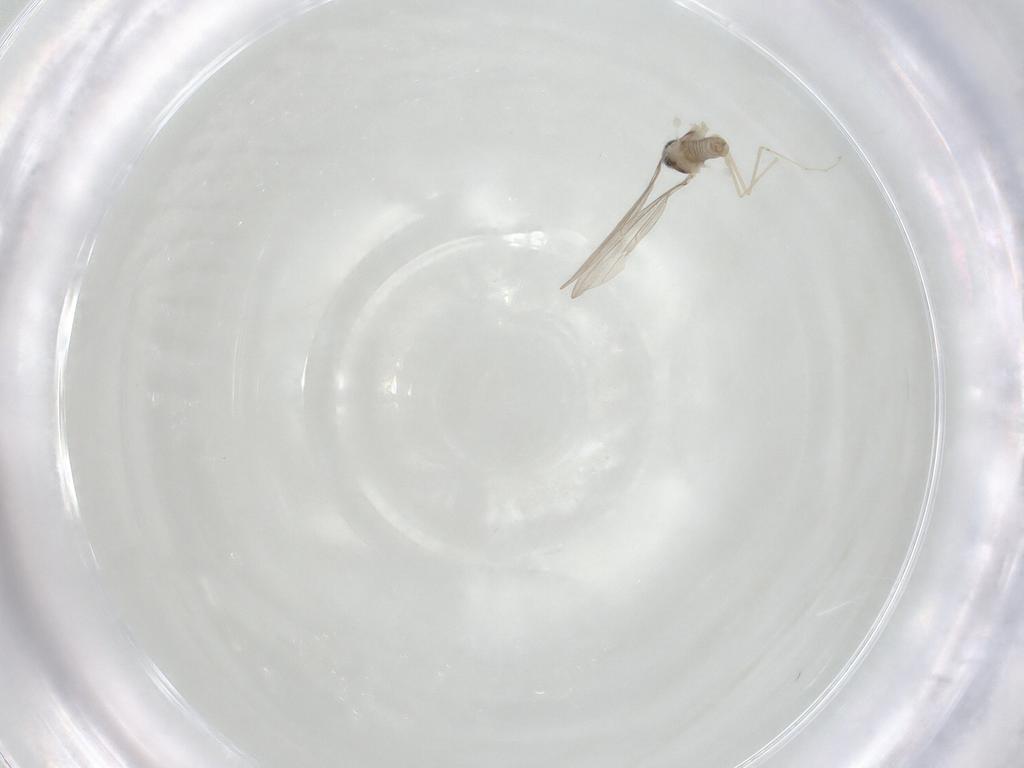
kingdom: Animalia
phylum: Arthropoda
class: Insecta
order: Diptera
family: Cecidomyiidae
